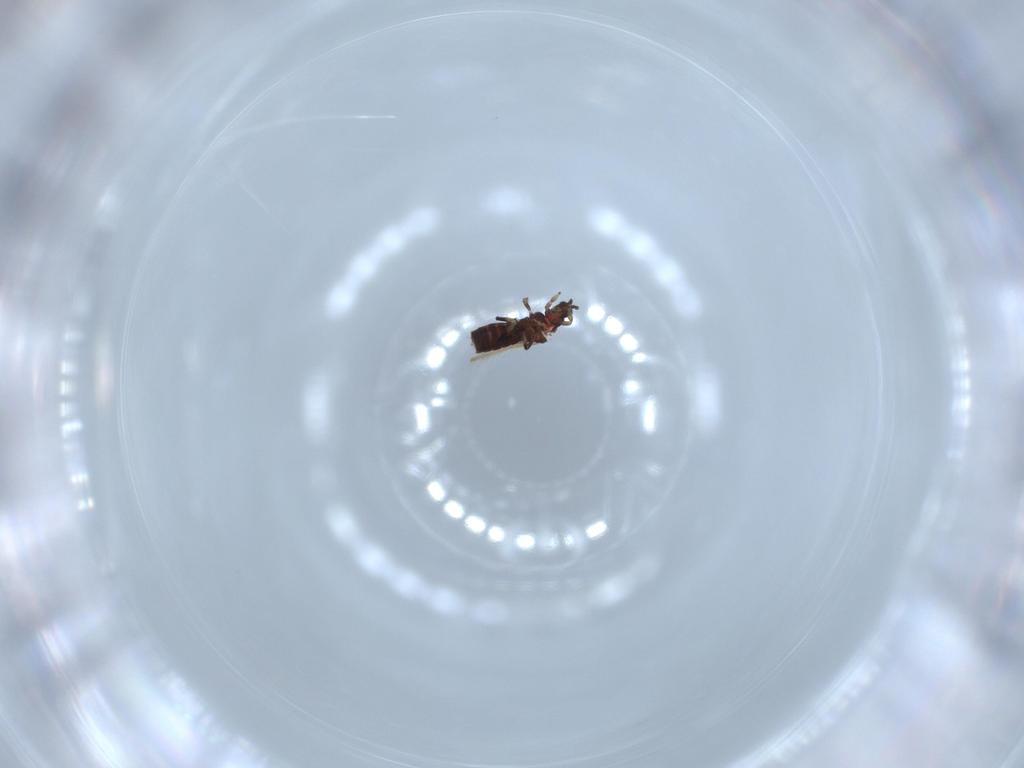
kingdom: Animalia
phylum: Arthropoda
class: Insecta
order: Thysanoptera
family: Thripidae
